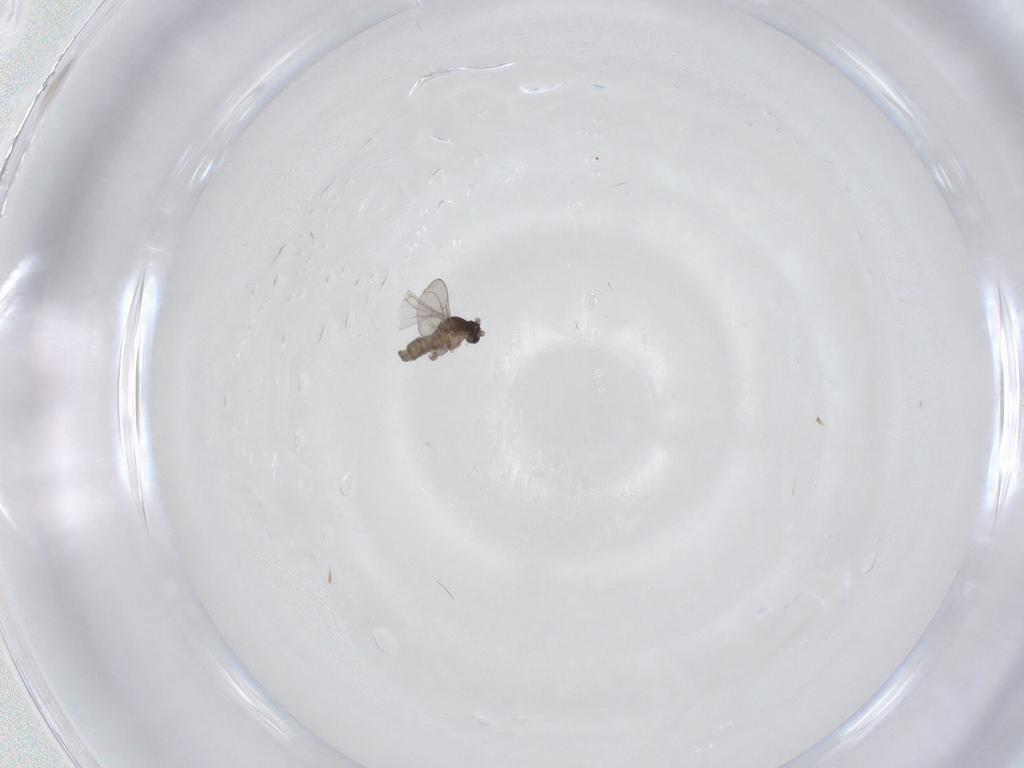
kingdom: Animalia
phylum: Arthropoda
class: Insecta
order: Diptera
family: Cecidomyiidae
